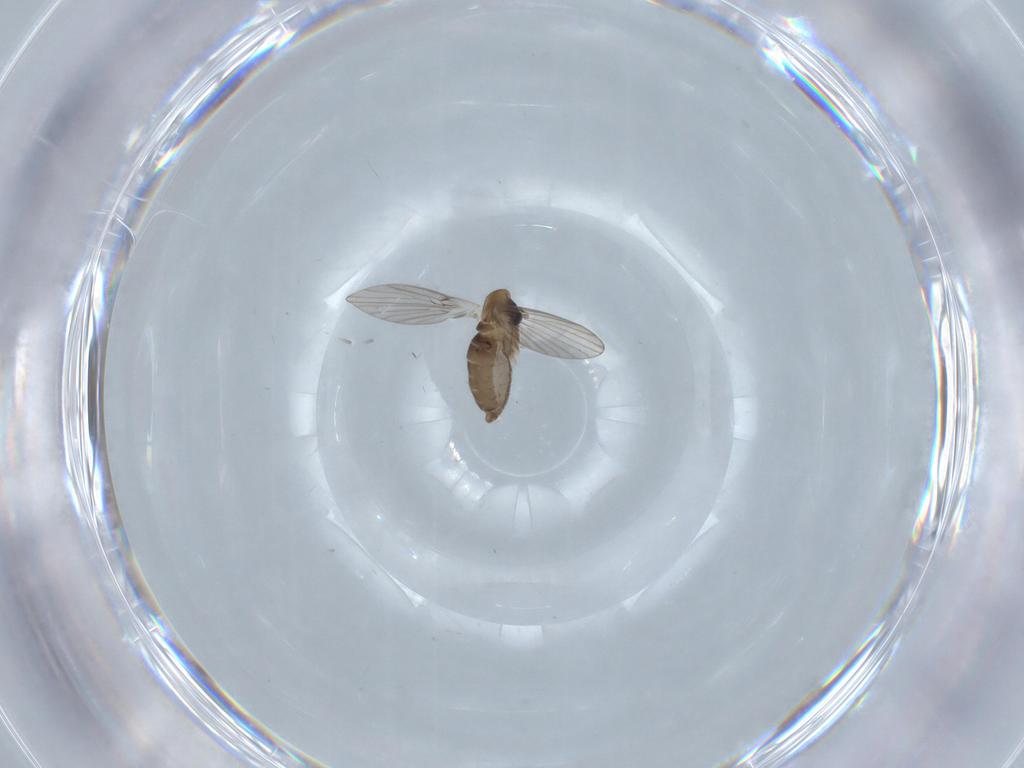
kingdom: Animalia
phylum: Arthropoda
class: Insecta
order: Diptera
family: Psychodidae
